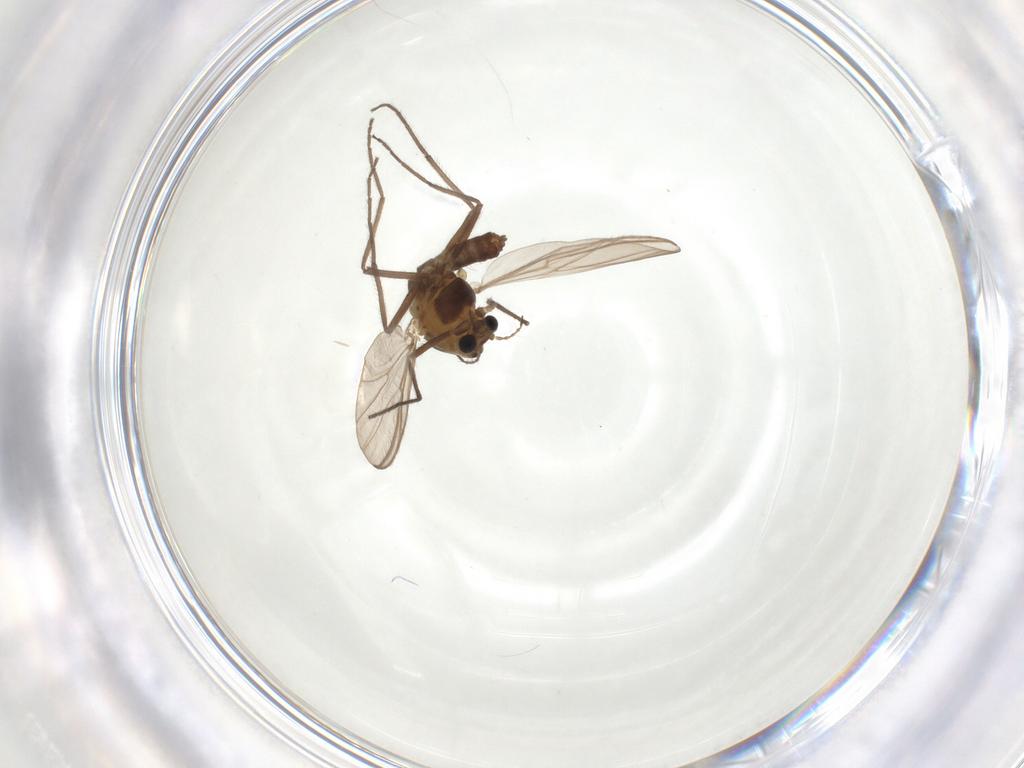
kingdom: Animalia
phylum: Arthropoda
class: Insecta
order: Diptera
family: Chironomidae
